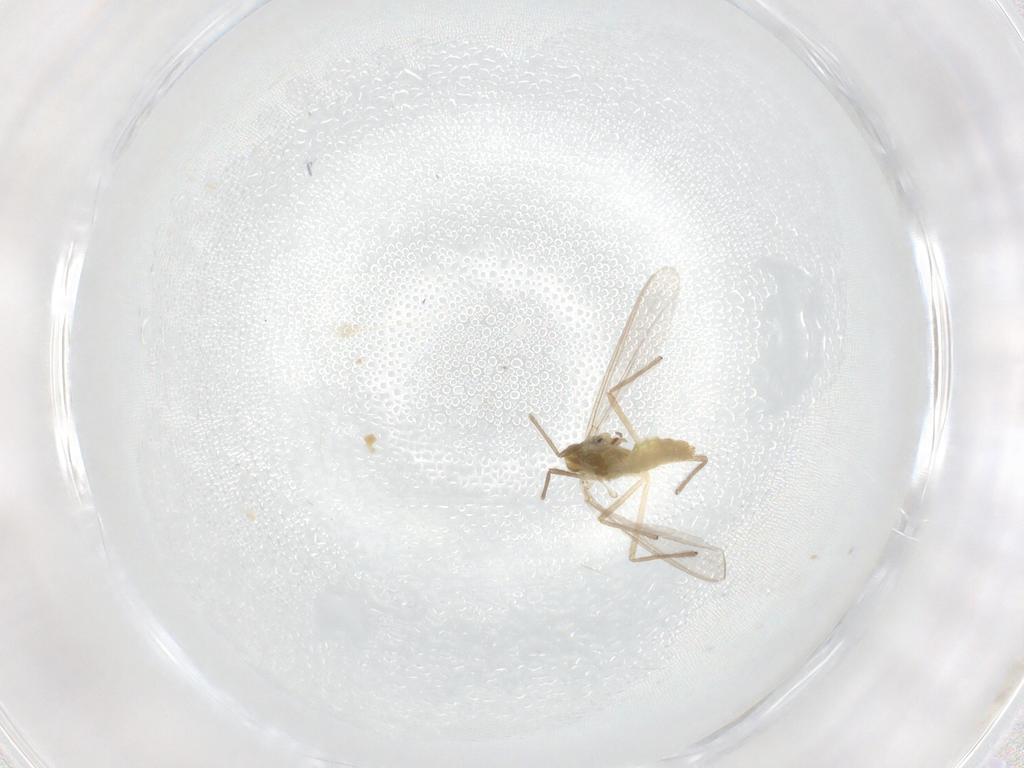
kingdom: Animalia
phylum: Arthropoda
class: Insecta
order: Diptera
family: Chironomidae
